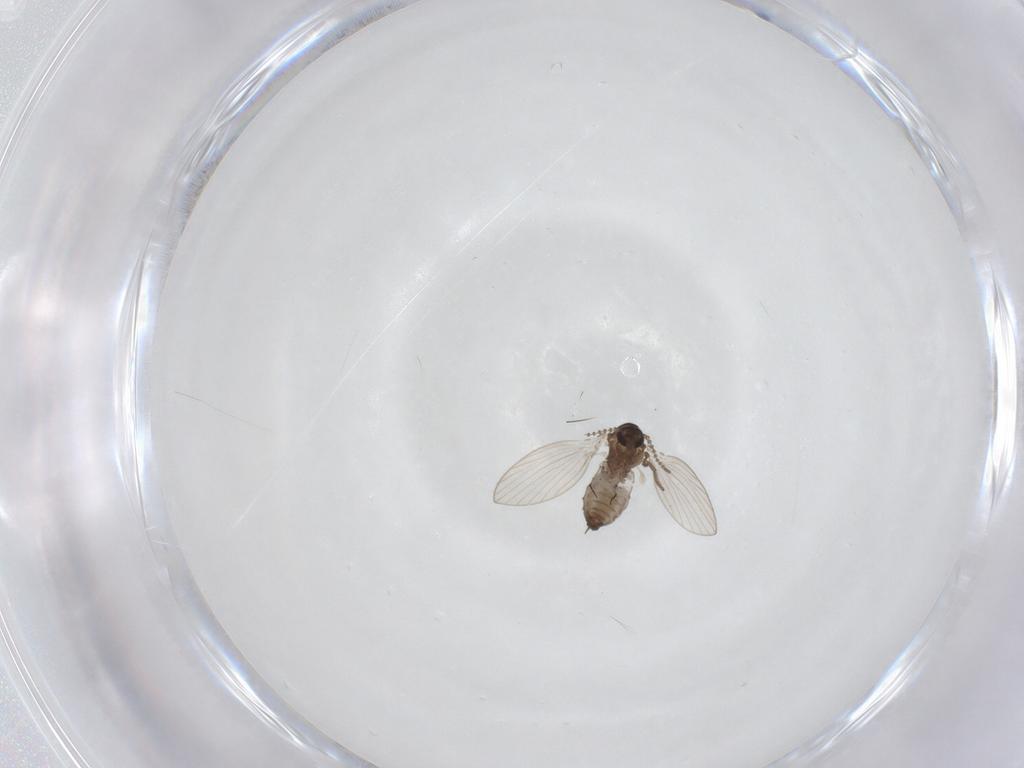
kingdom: Animalia
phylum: Arthropoda
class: Insecta
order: Diptera
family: Psychodidae
